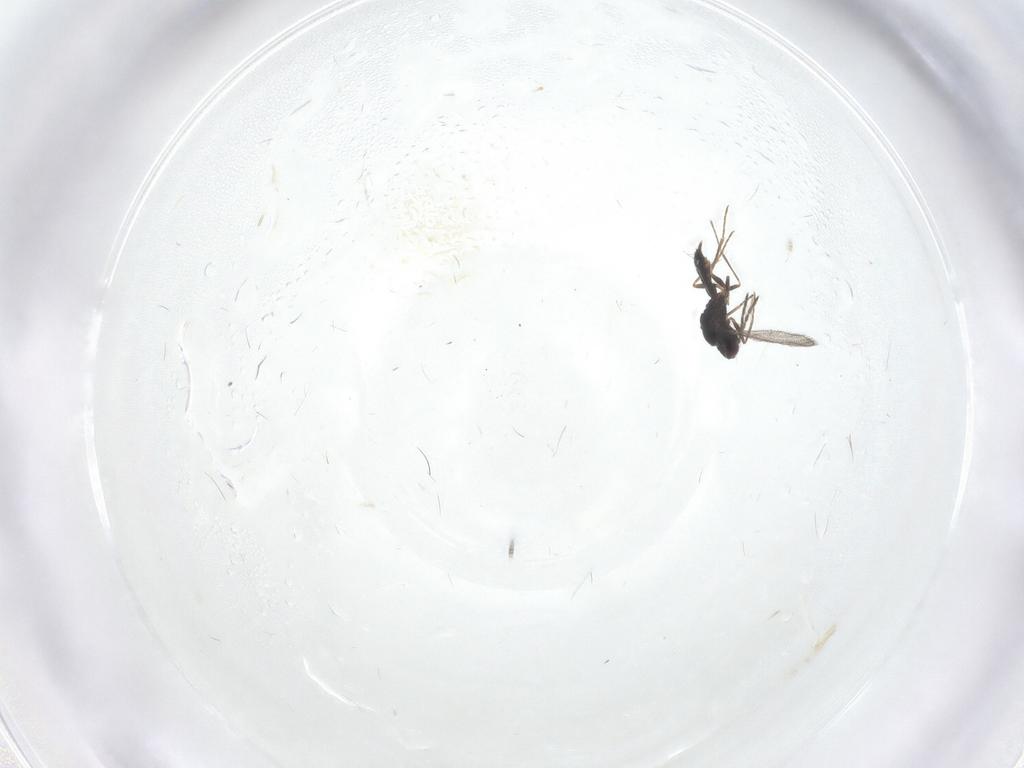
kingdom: Animalia
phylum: Arthropoda
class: Insecta
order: Hymenoptera
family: Eulophidae
